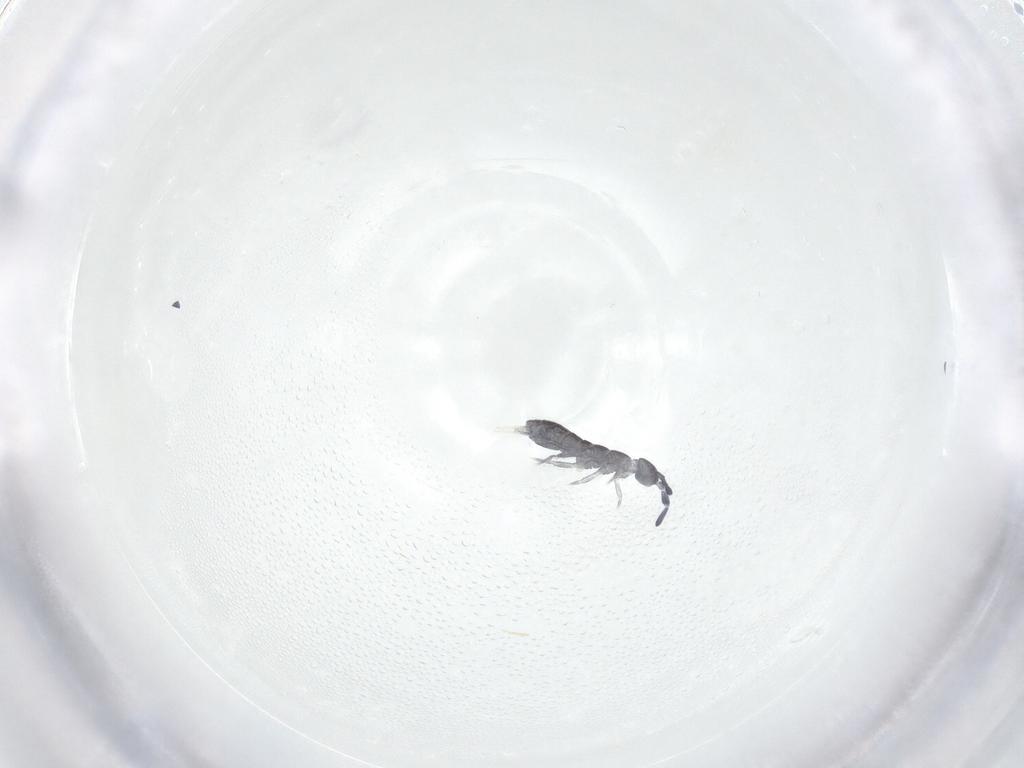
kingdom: Animalia
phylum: Arthropoda
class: Collembola
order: Entomobryomorpha
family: Isotomidae
